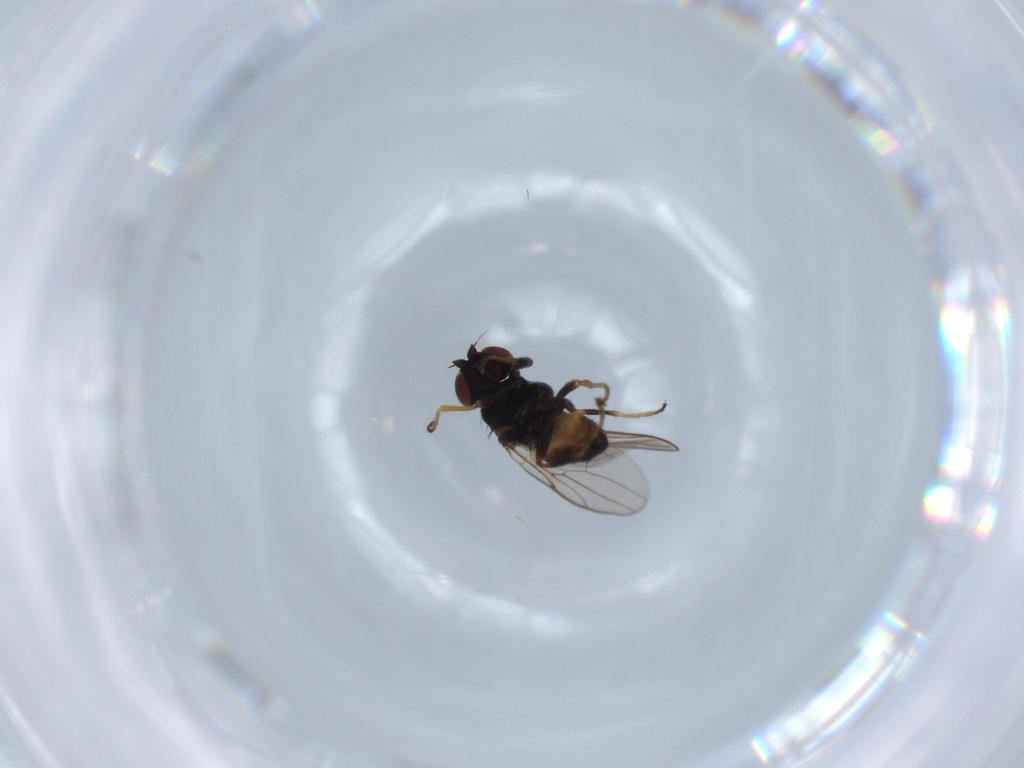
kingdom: Animalia
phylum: Arthropoda
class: Insecta
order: Diptera
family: Chloropidae
